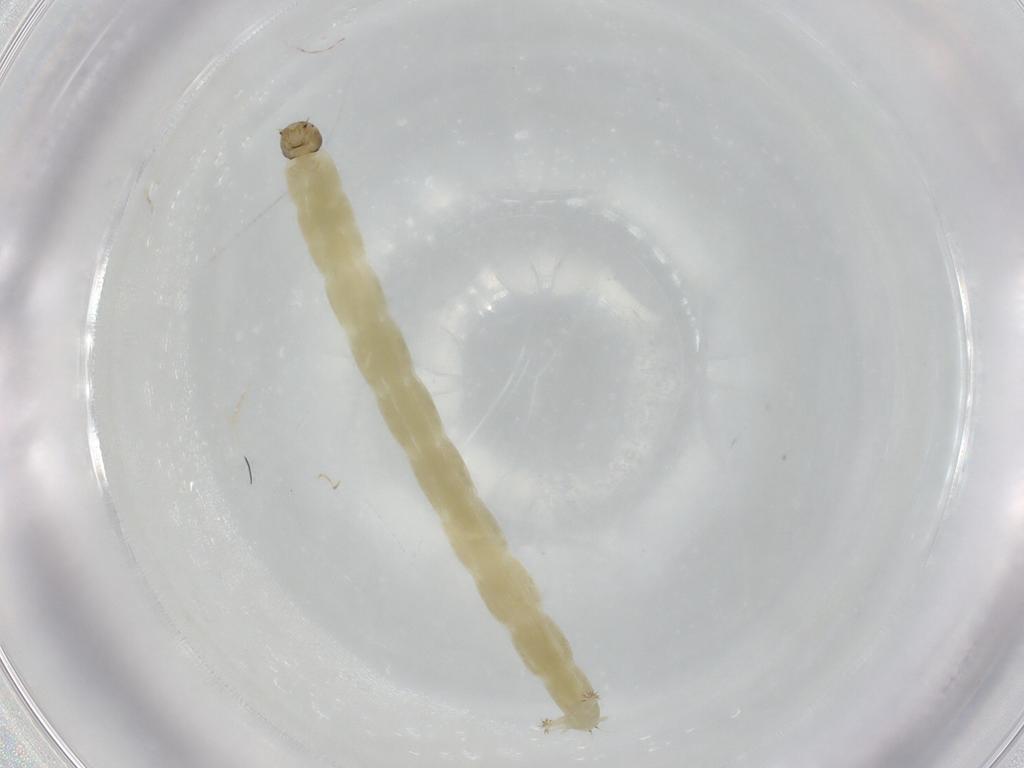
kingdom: Animalia
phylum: Arthropoda
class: Insecta
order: Diptera
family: Chironomidae
